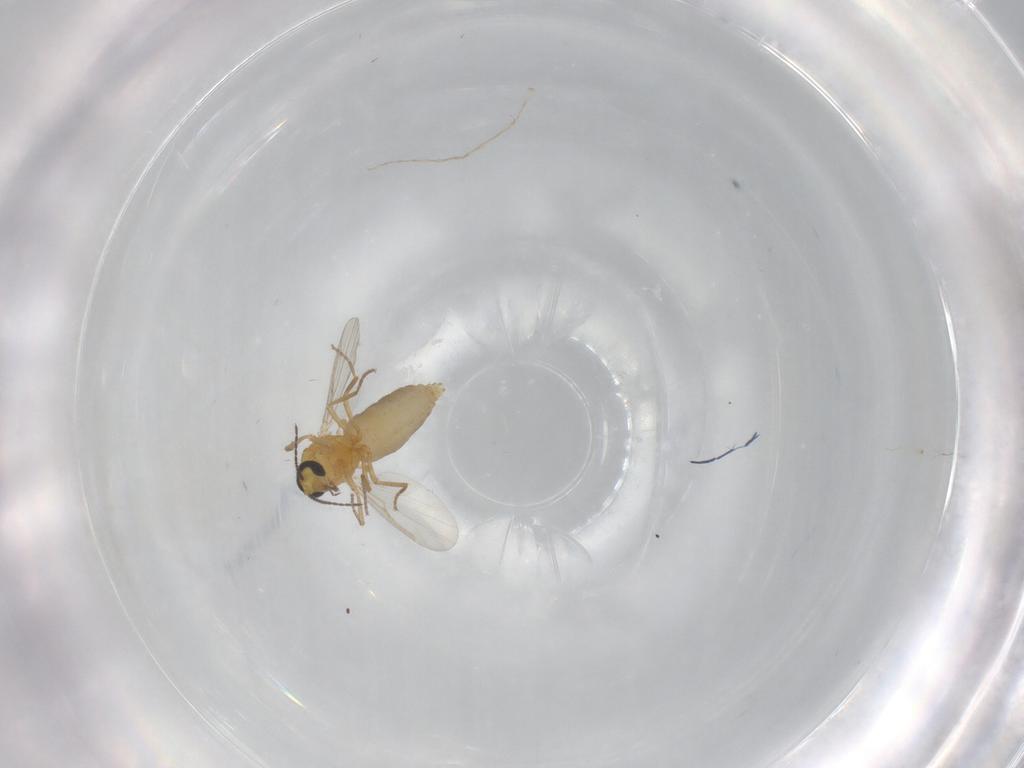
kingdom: Animalia
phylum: Arthropoda
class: Insecta
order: Diptera
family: Ceratopogonidae
